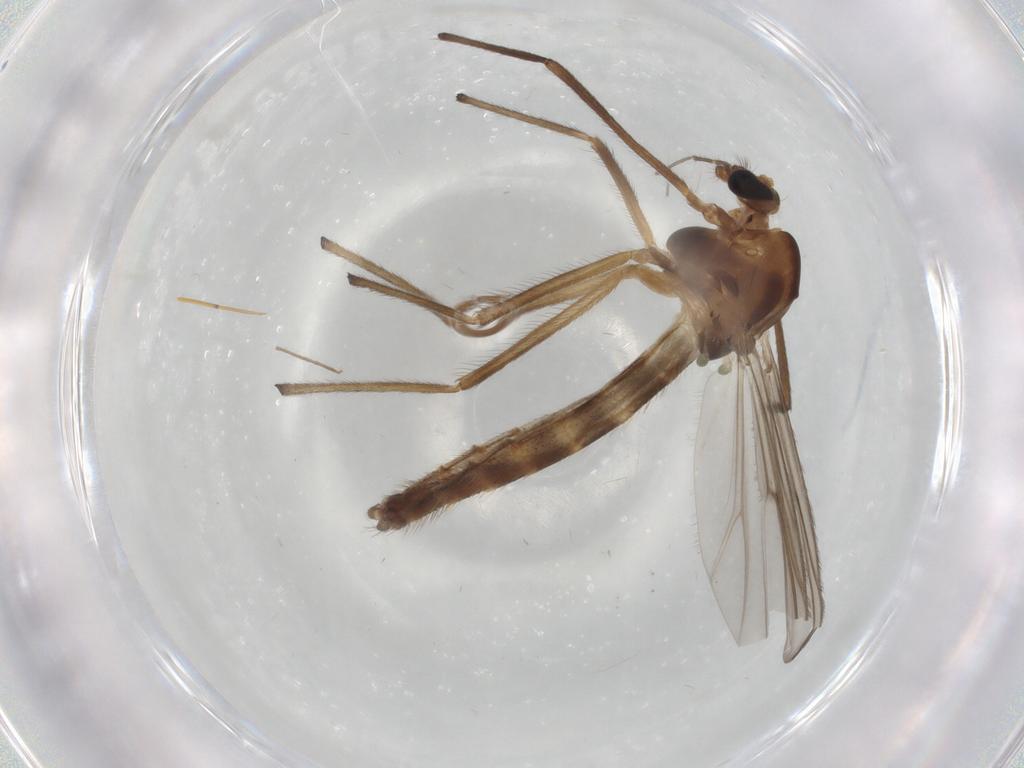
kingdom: Animalia
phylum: Arthropoda
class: Insecta
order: Diptera
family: Chironomidae
